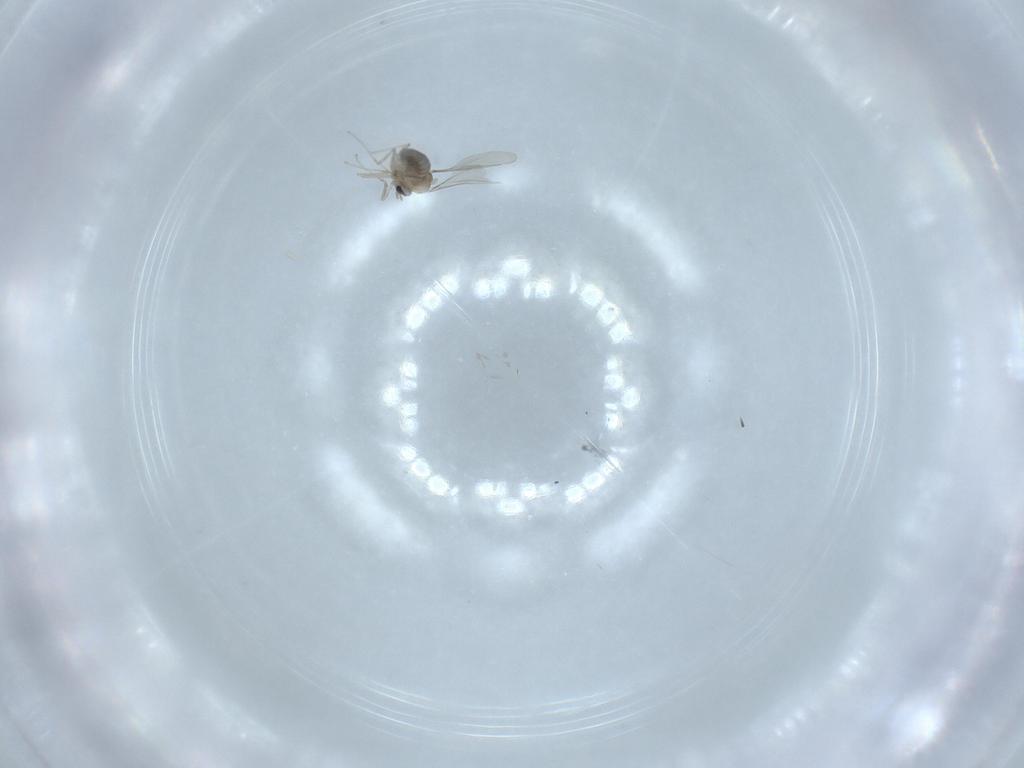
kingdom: Animalia
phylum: Arthropoda
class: Insecta
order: Diptera
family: Cecidomyiidae
